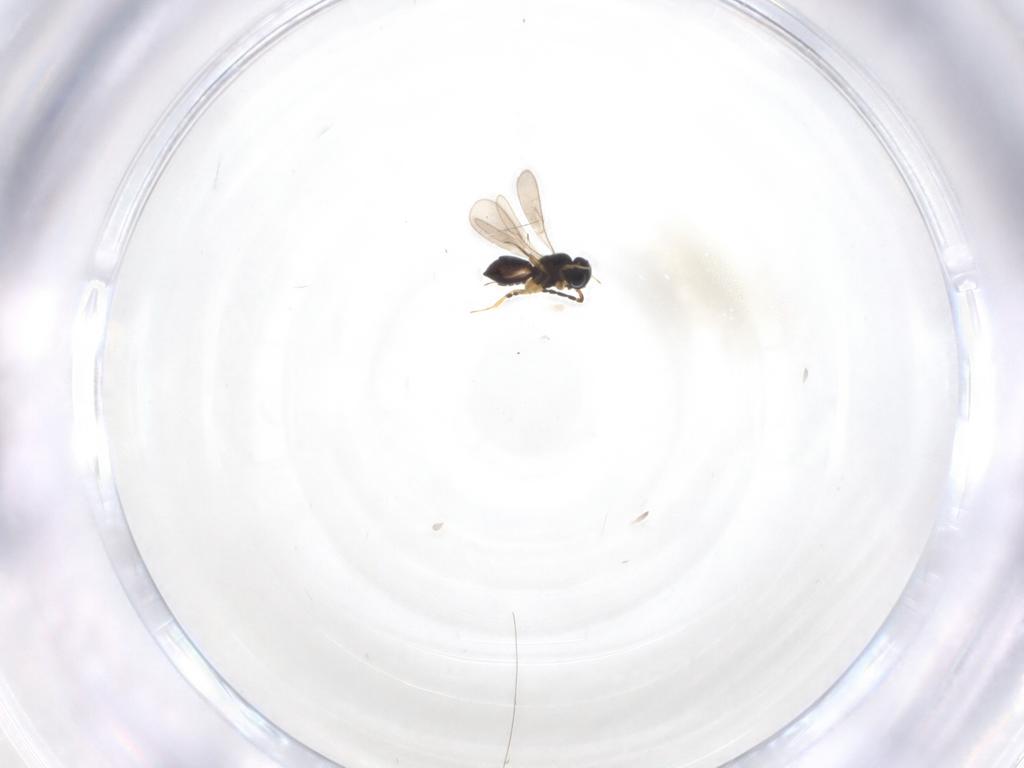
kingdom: Animalia
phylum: Arthropoda
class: Insecta
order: Hymenoptera
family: Scelionidae
